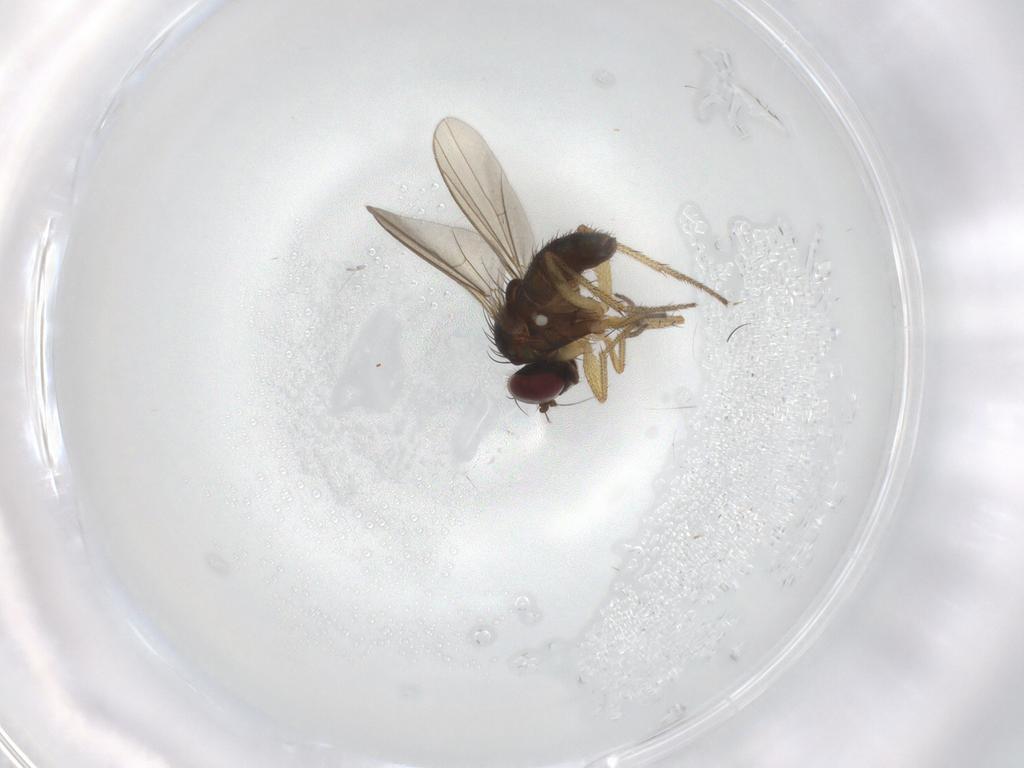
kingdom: Animalia
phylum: Arthropoda
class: Insecta
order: Diptera
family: Dolichopodidae
